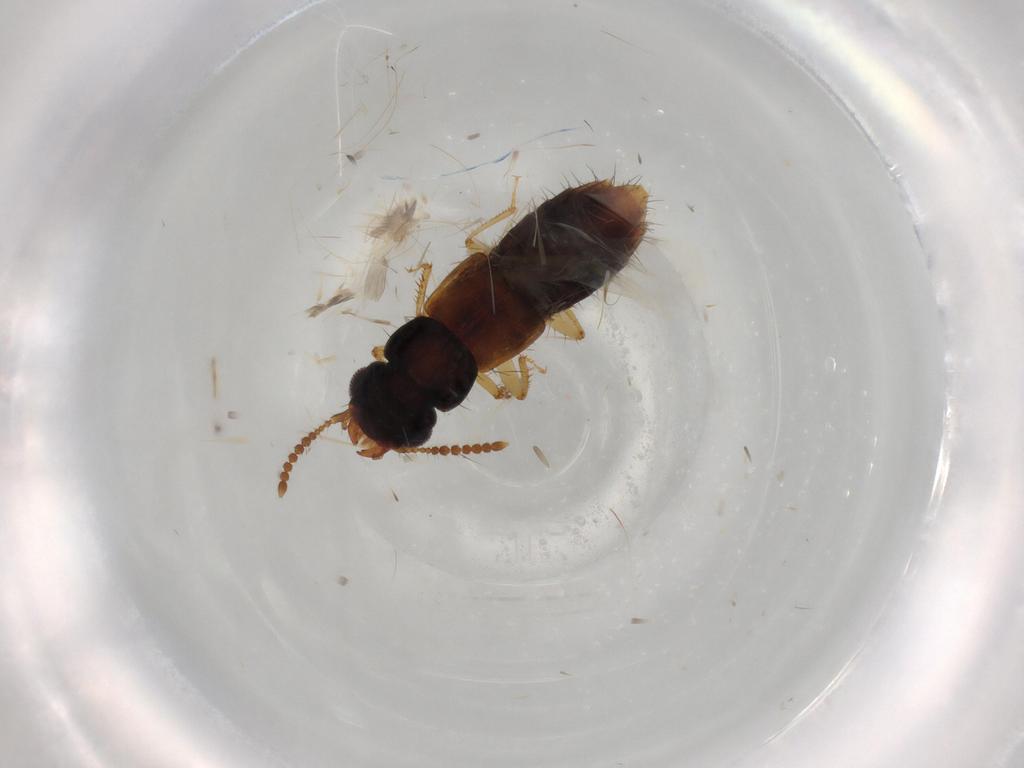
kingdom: Animalia
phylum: Arthropoda
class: Insecta
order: Coleoptera
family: Staphylinidae
